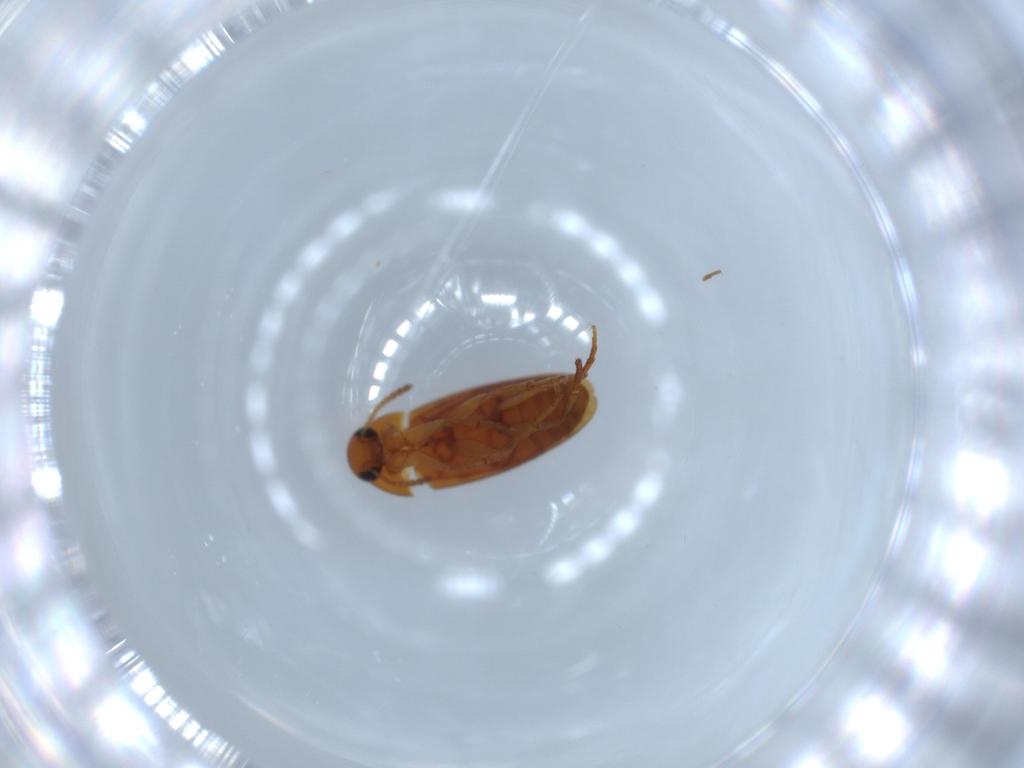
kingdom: Animalia
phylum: Arthropoda
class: Insecta
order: Coleoptera
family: Scraptiidae
